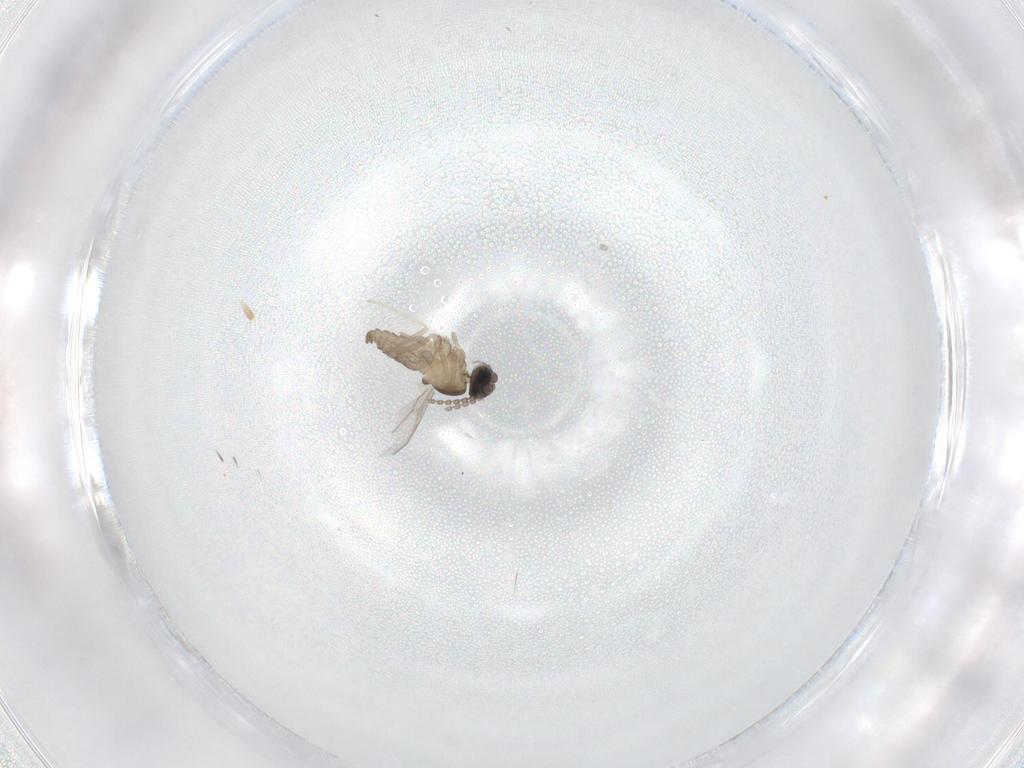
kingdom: Animalia
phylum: Arthropoda
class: Insecta
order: Diptera
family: Cecidomyiidae
